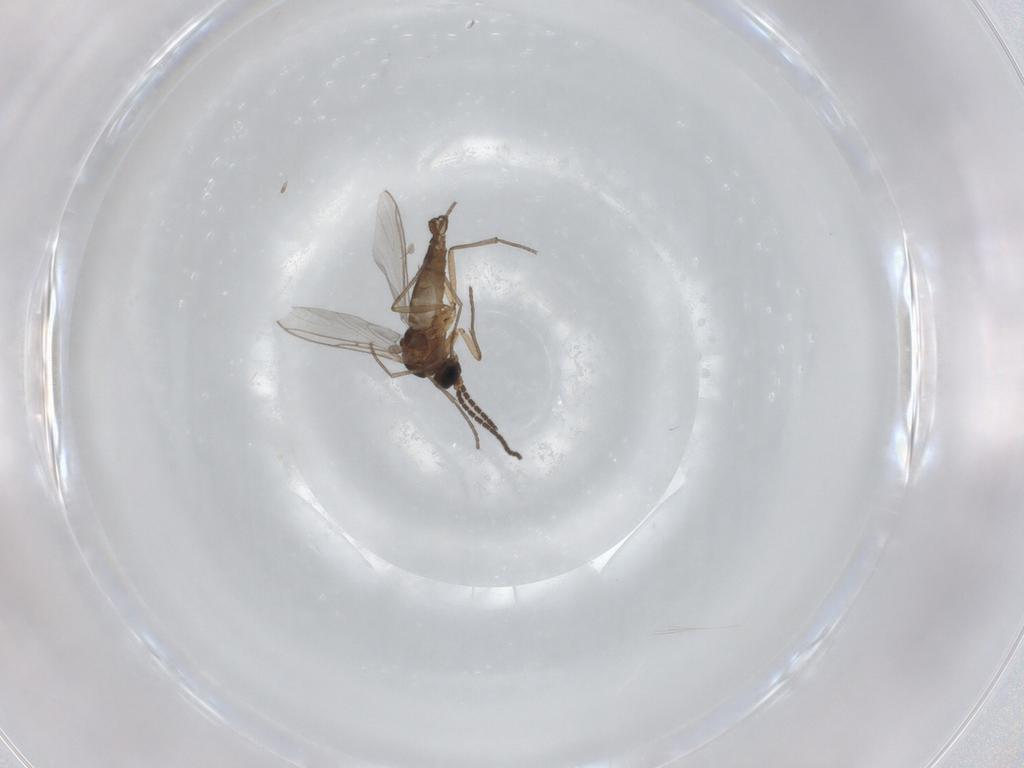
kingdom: Animalia
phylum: Arthropoda
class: Insecta
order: Diptera
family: Sciaridae
